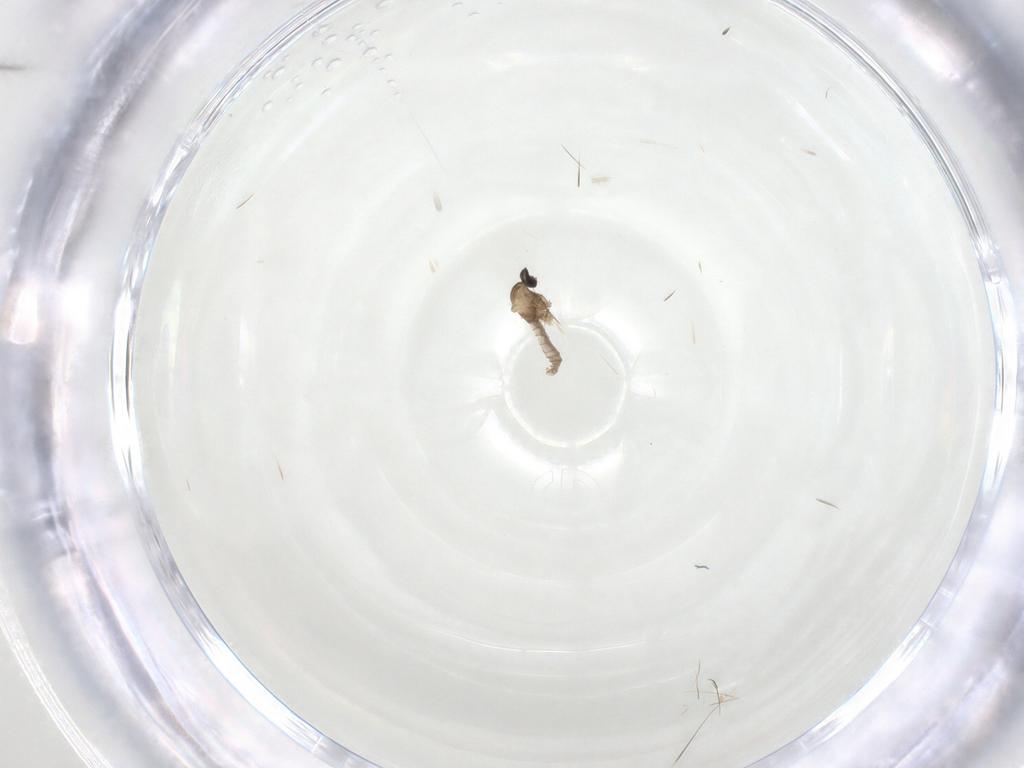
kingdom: Animalia
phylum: Arthropoda
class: Insecta
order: Diptera
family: Cecidomyiidae
